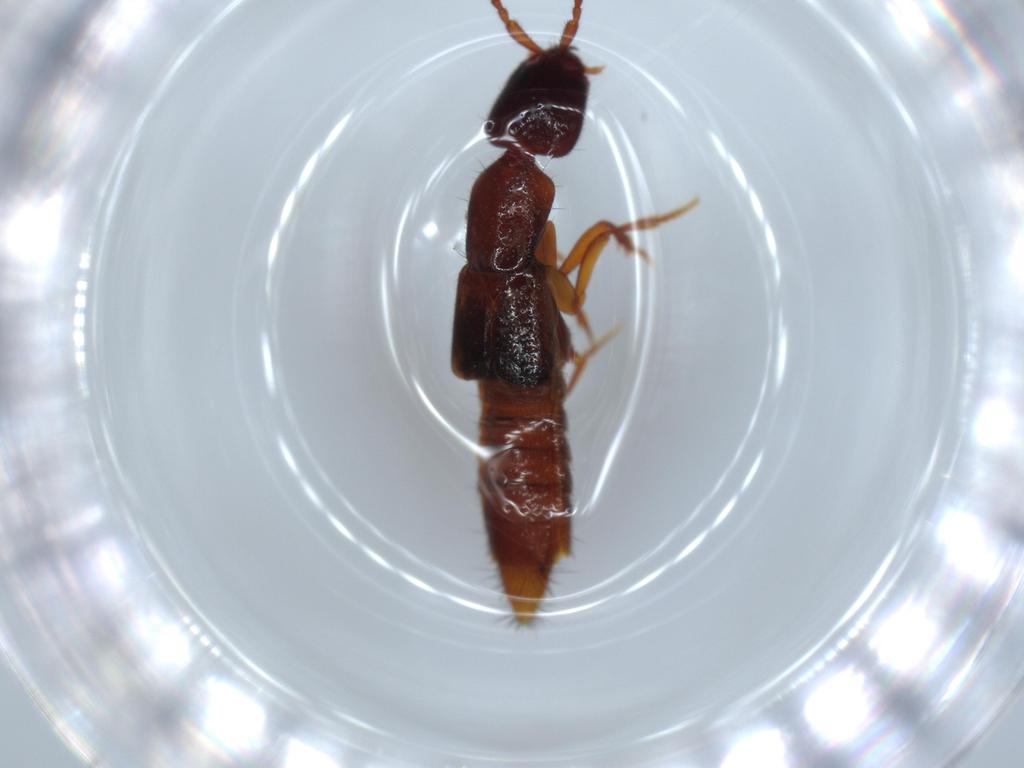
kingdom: Animalia
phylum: Arthropoda
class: Insecta
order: Coleoptera
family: Staphylinidae
